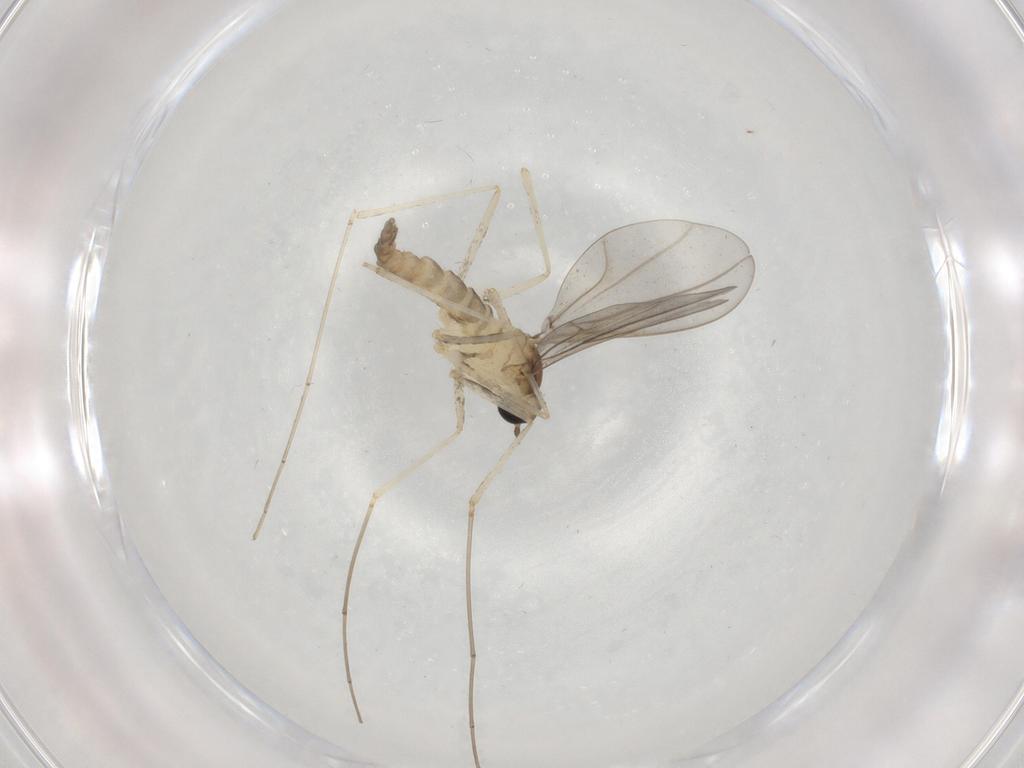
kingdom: Animalia
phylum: Arthropoda
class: Insecta
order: Diptera
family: Cecidomyiidae
